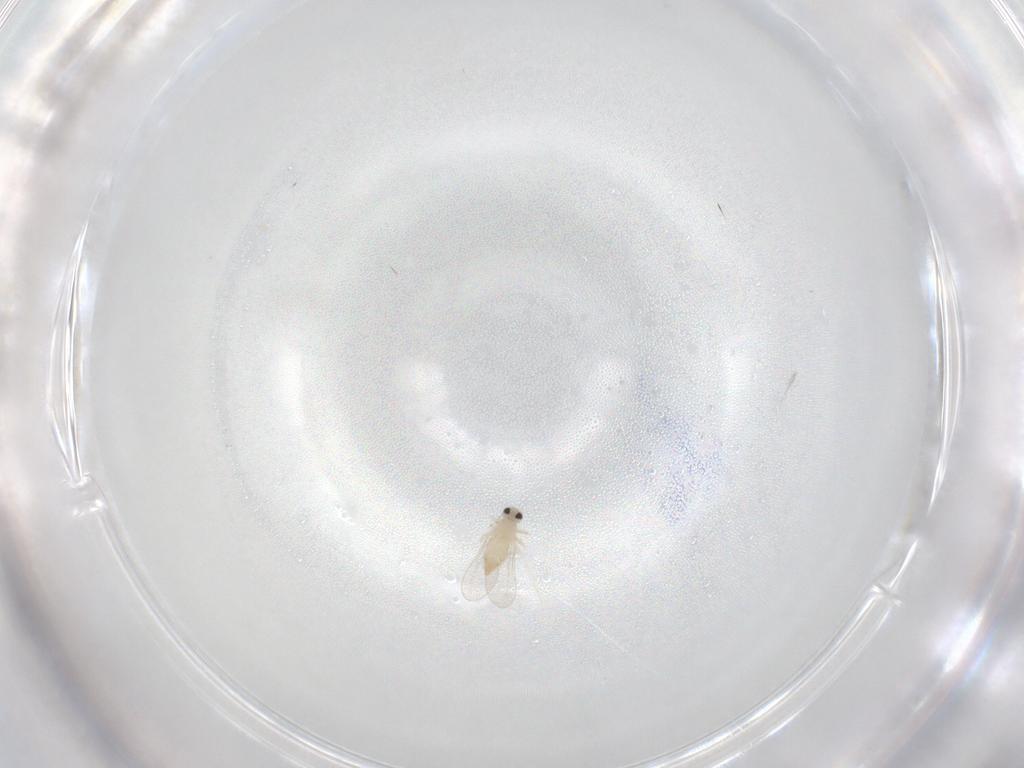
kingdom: Animalia
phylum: Arthropoda
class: Insecta
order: Diptera
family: Cecidomyiidae
